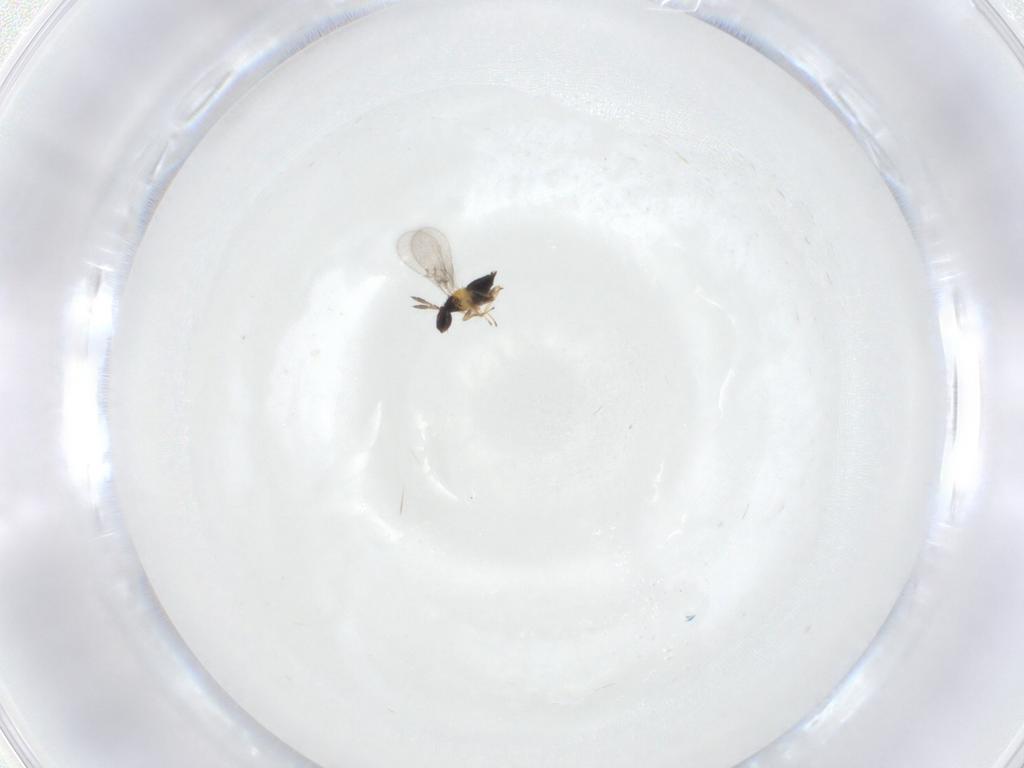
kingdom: Animalia
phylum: Arthropoda
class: Insecta
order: Hymenoptera
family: Trichogrammatidae
